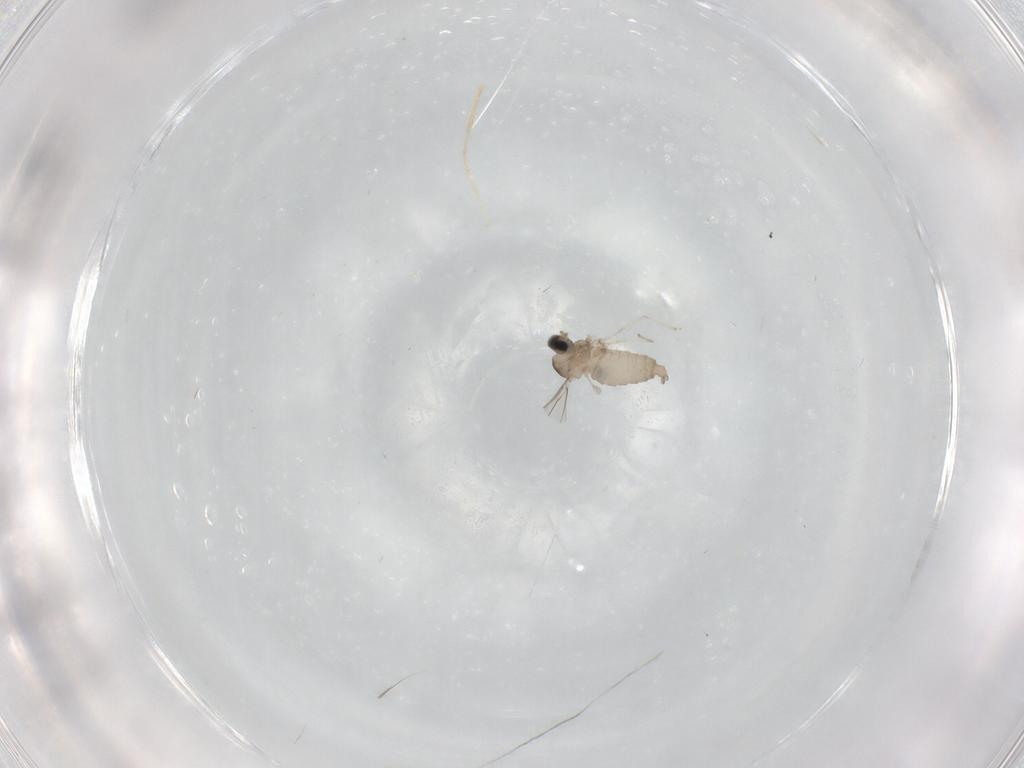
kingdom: Animalia
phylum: Arthropoda
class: Insecta
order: Diptera
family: Cecidomyiidae
